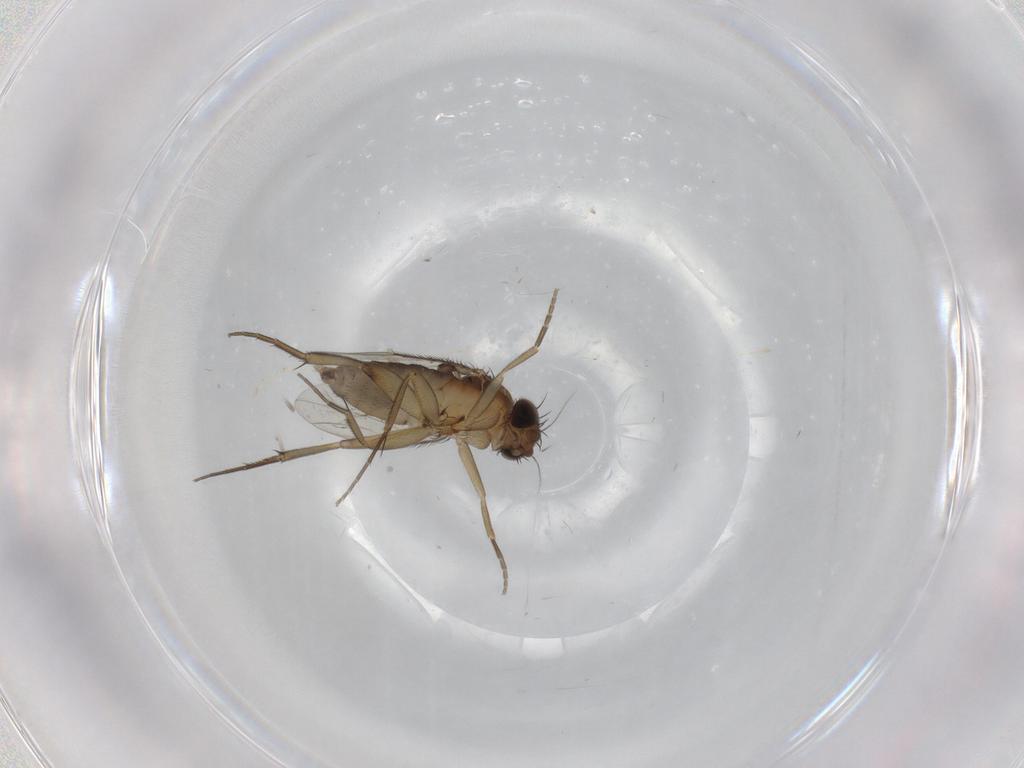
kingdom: Animalia
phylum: Arthropoda
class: Insecta
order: Diptera
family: Phoridae
